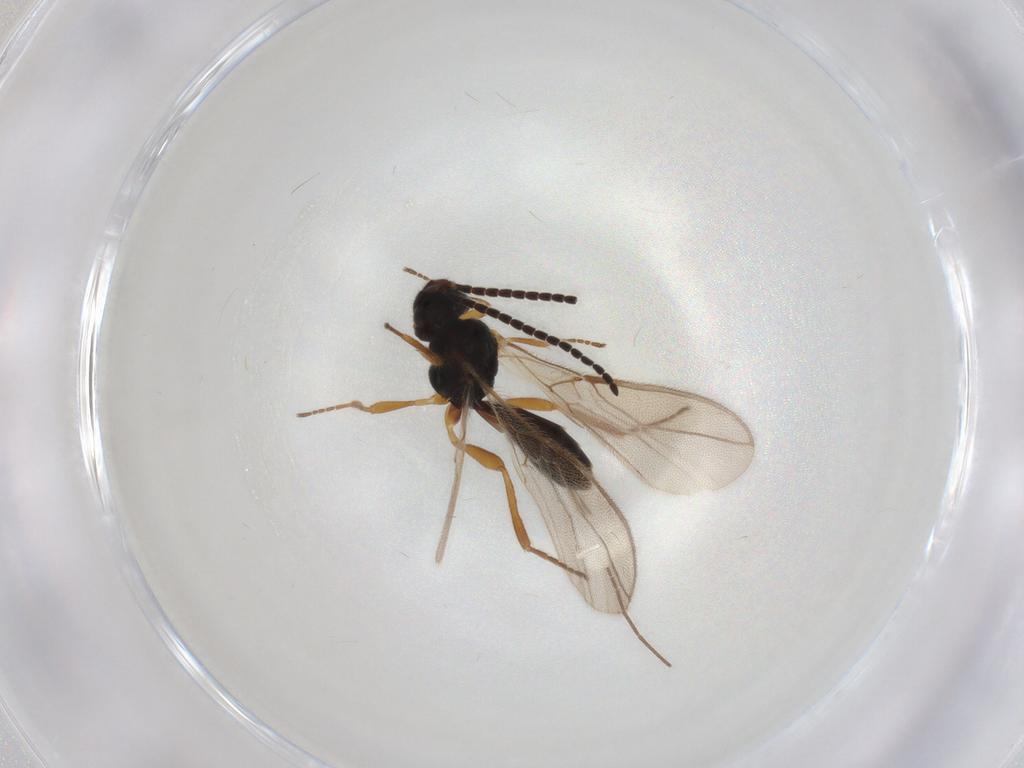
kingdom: Animalia
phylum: Arthropoda
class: Insecta
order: Hymenoptera
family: Braconidae
